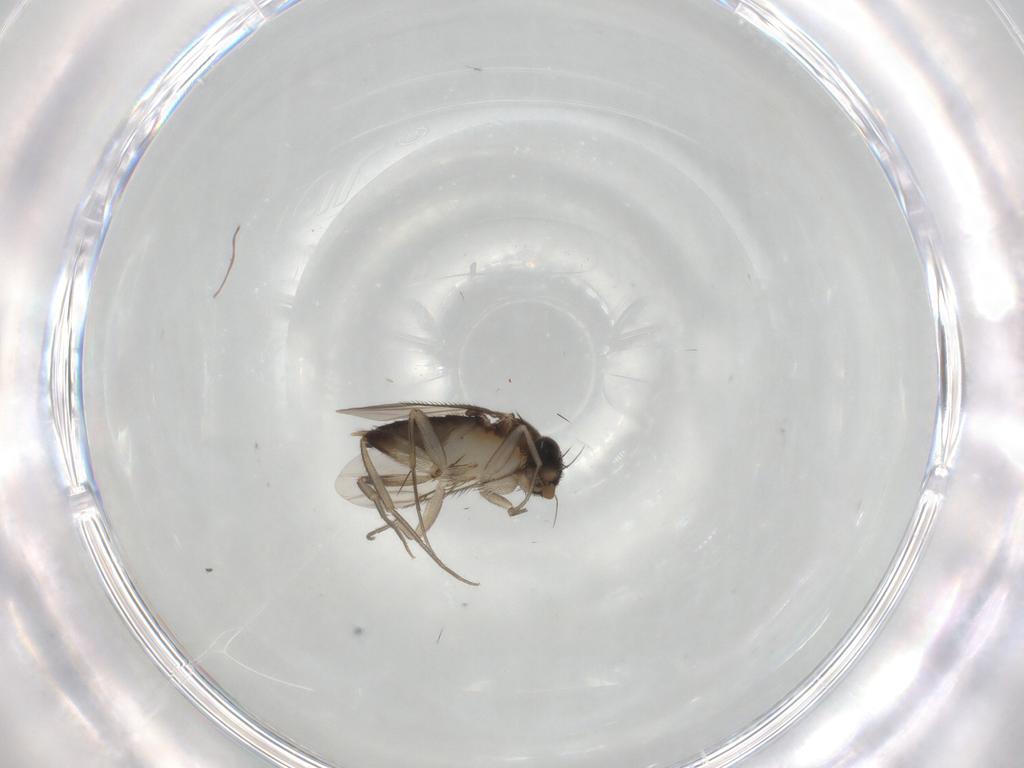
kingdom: Animalia
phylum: Arthropoda
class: Insecta
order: Diptera
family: Phoridae
